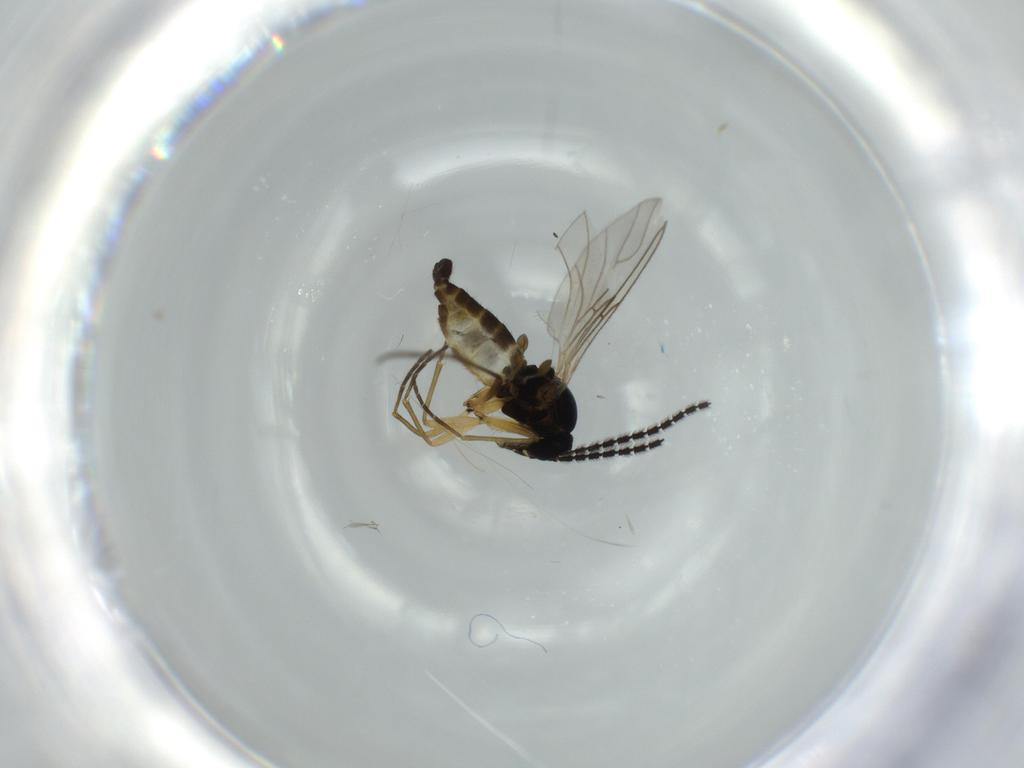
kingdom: Animalia
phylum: Arthropoda
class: Insecta
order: Diptera
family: Sciaridae
